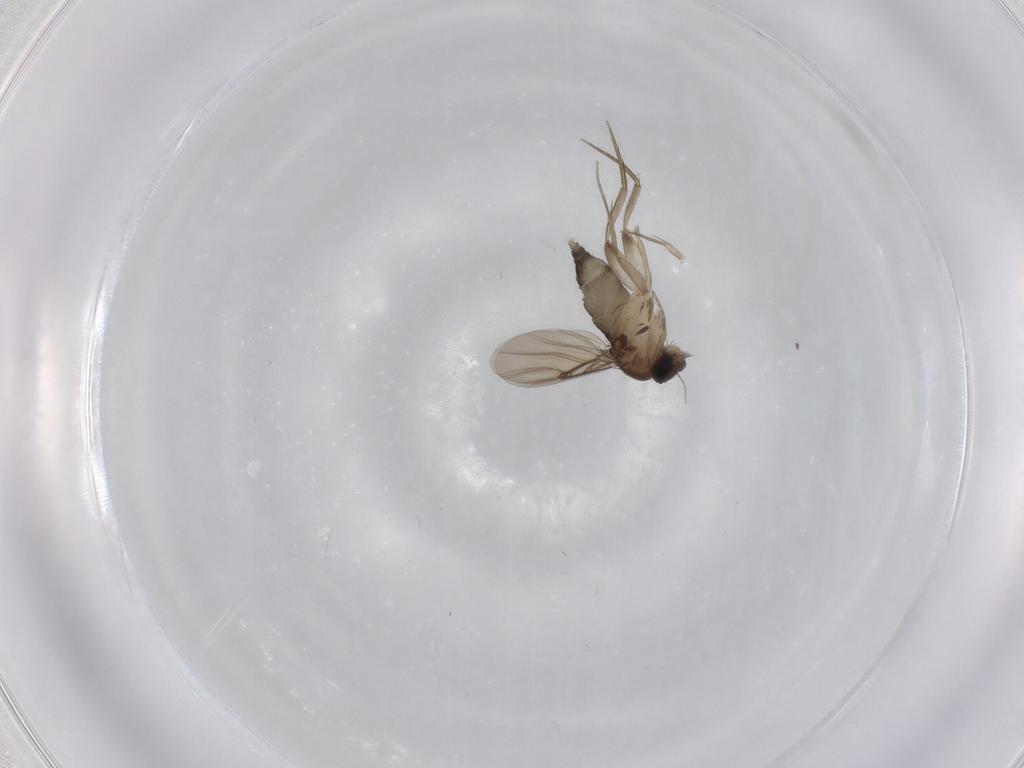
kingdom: Animalia
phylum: Arthropoda
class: Insecta
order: Diptera
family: Phoridae
